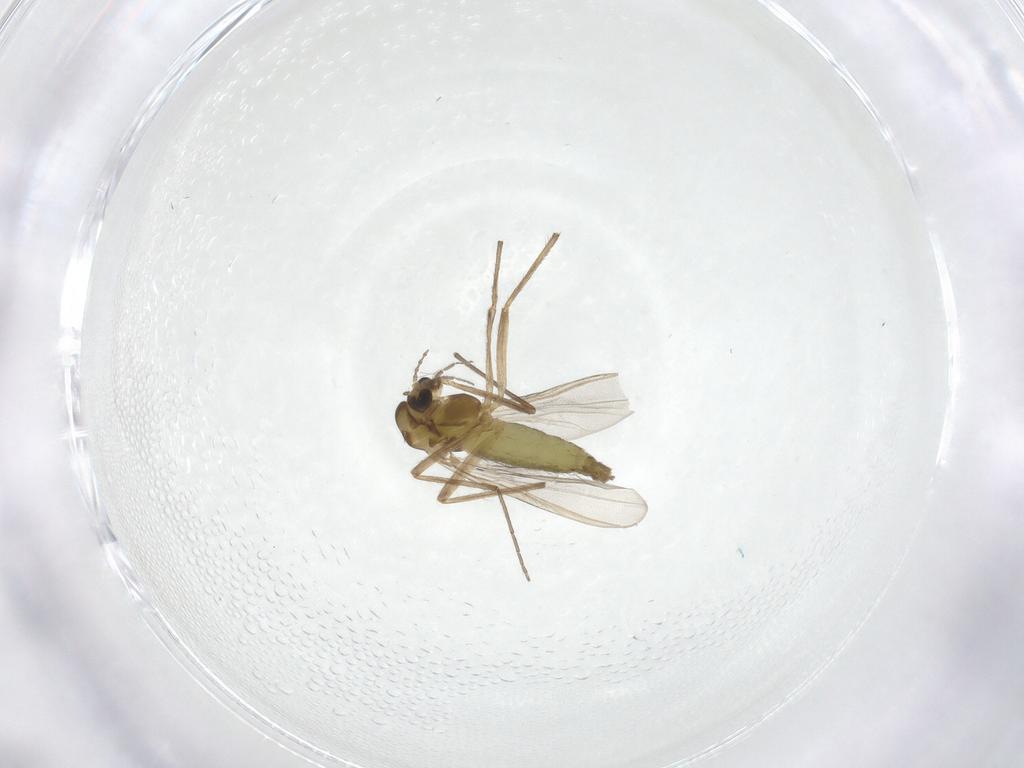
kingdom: Animalia
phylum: Arthropoda
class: Insecta
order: Diptera
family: Chironomidae
